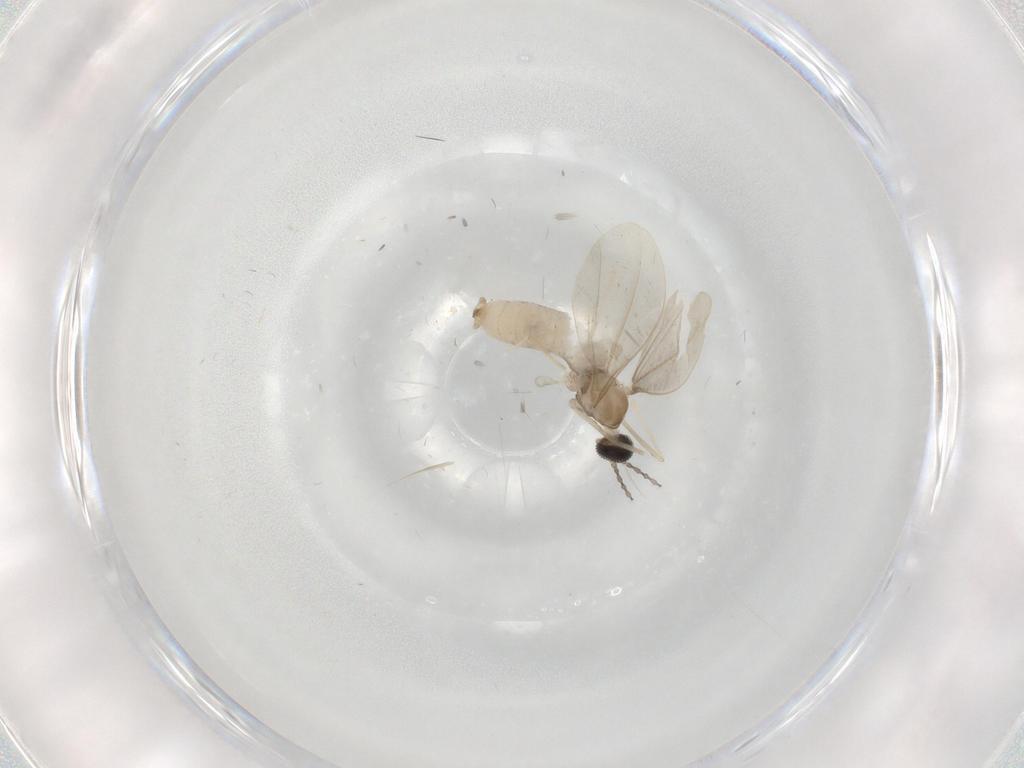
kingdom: Animalia
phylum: Arthropoda
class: Insecta
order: Diptera
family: Cecidomyiidae
